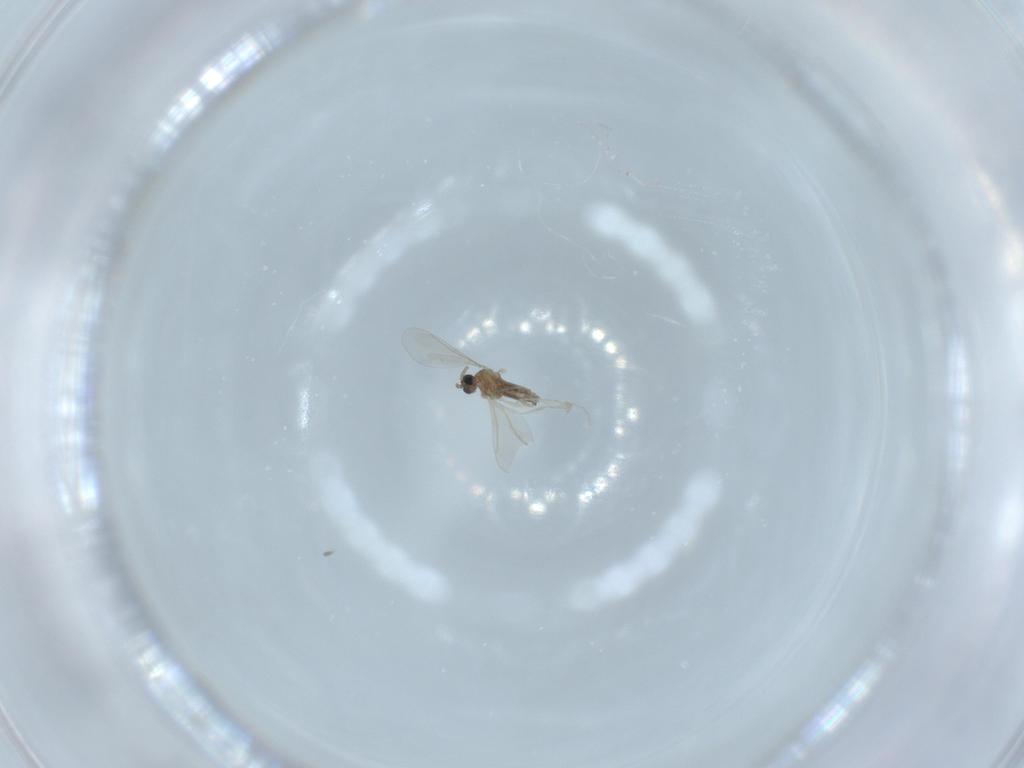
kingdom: Animalia
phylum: Arthropoda
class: Insecta
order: Diptera
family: Cecidomyiidae
